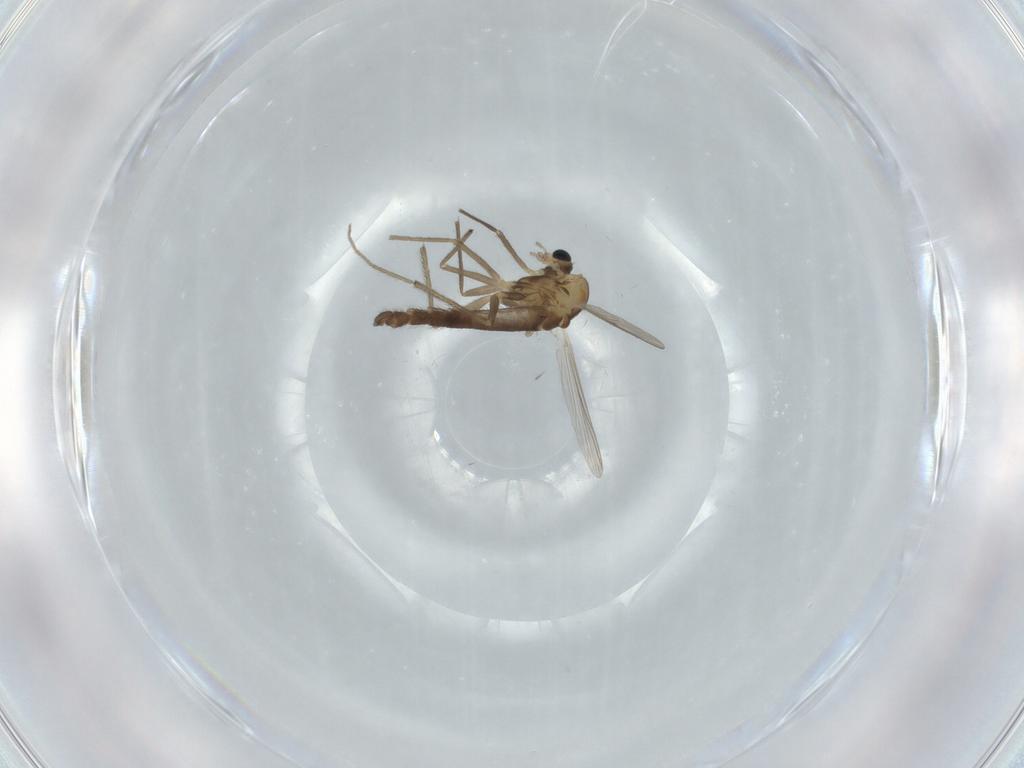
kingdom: Animalia
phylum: Arthropoda
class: Insecta
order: Diptera
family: Chironomidae
